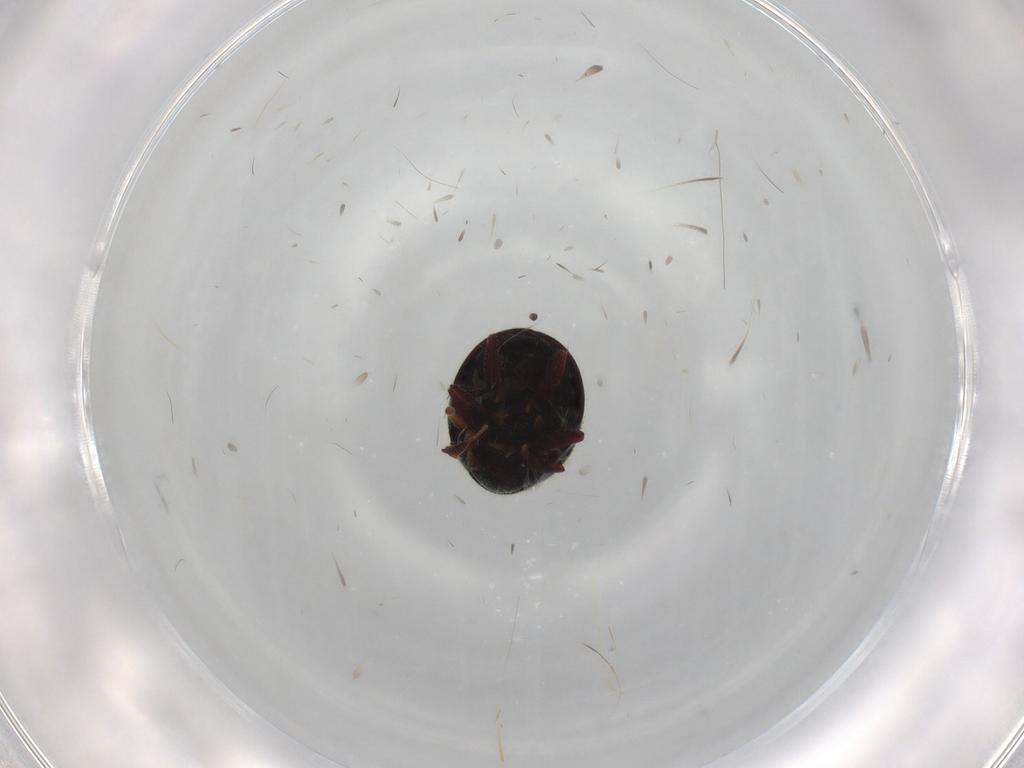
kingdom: Animalia
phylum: Arthropoda
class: Insecta
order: Coleoptera
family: Ptinidae
